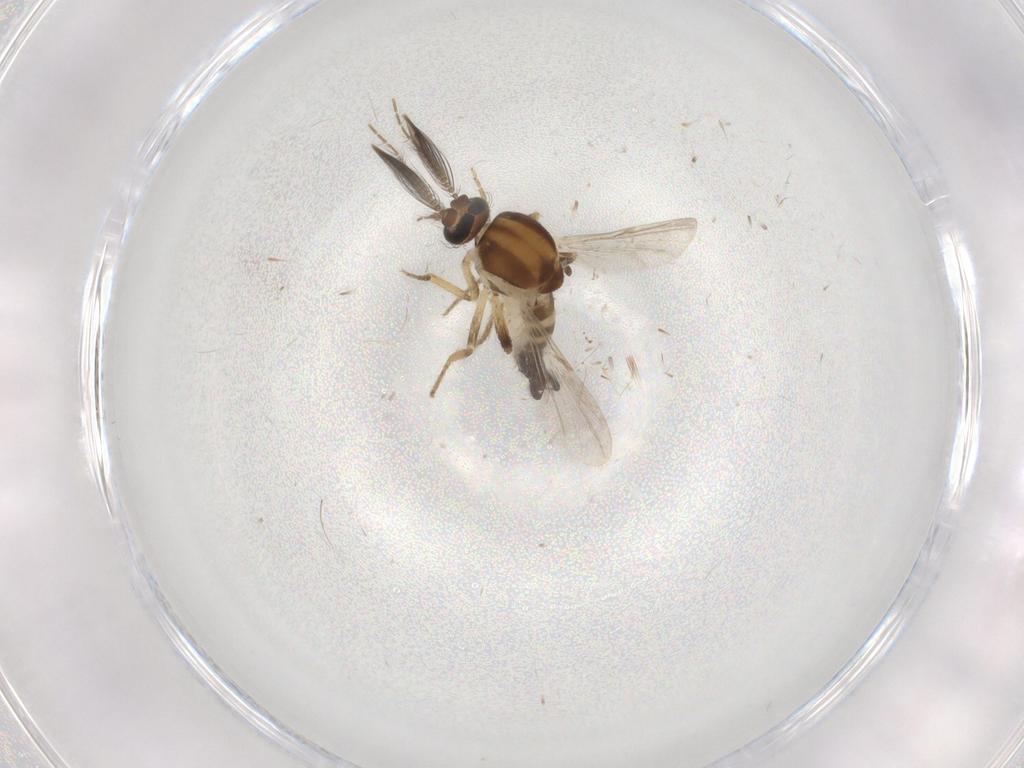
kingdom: Animalia
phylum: Arthropoda
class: Insecta
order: Diptera
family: Ceratopogonidae
